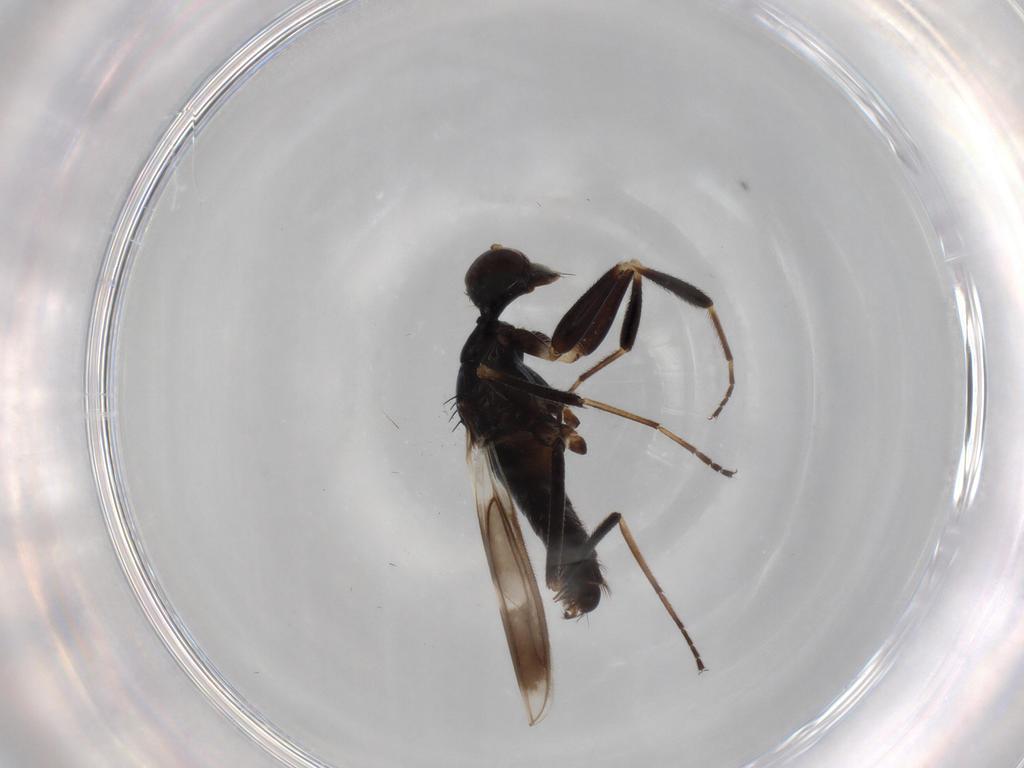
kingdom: Animalia
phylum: Arthropoda
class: Insecta
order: Diptera
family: Hybotidae
